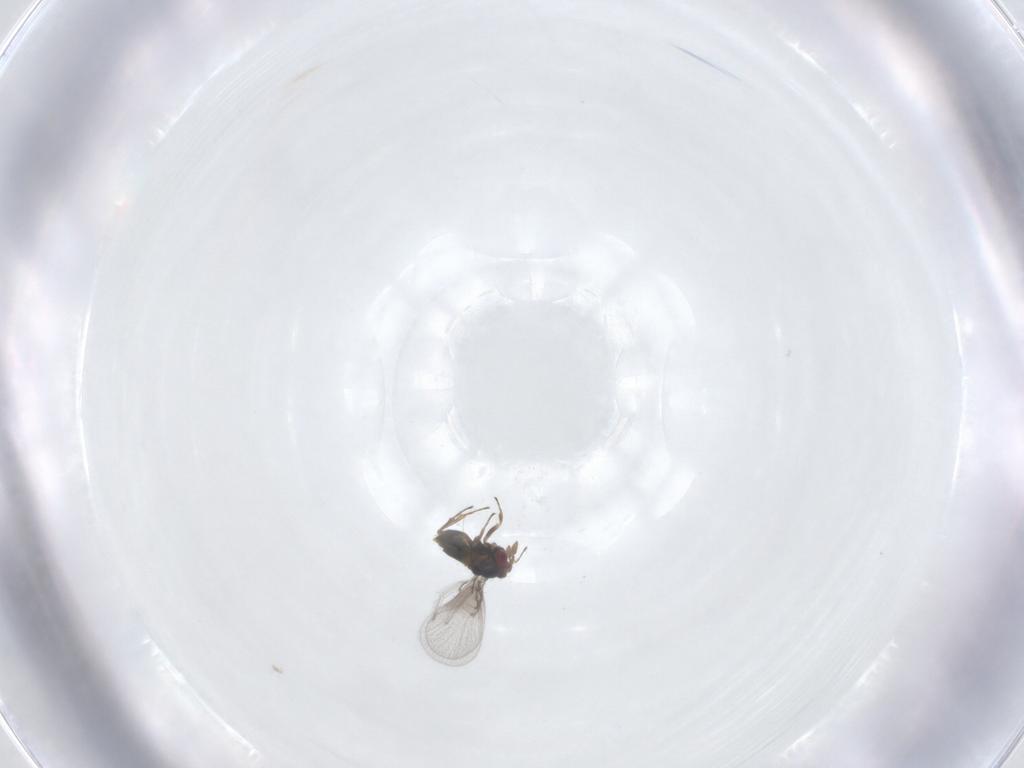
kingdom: Animalia
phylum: Arthropoda
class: Insecta
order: Hymenoptera
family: Trichogrammatidae
